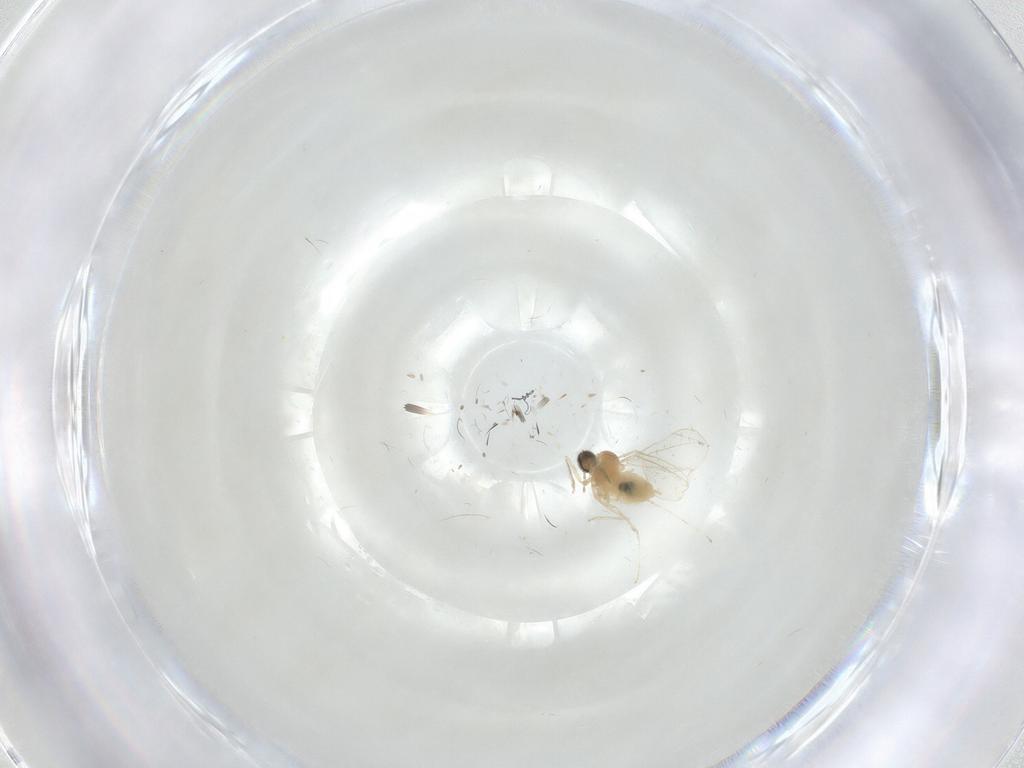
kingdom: Animalia
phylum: Arthropoda
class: Insecta
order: Diptera
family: Cecidomyiidae
